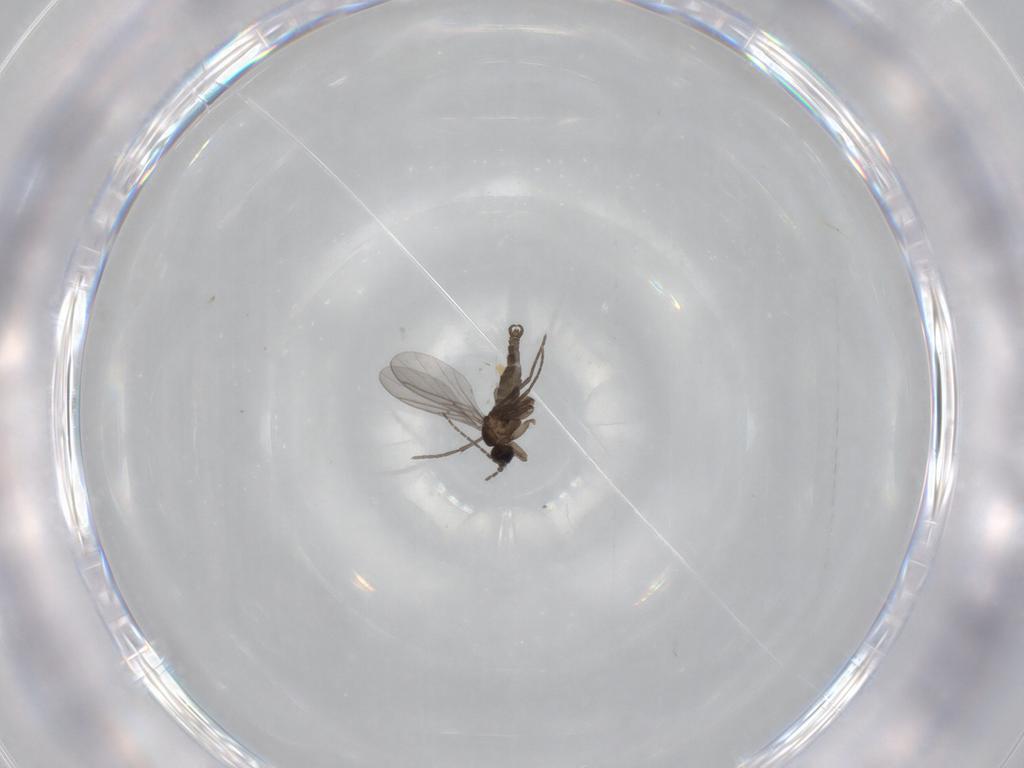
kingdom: Animalia
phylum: Arthropoda
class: Insecta
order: Diptera
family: Sciaridae
